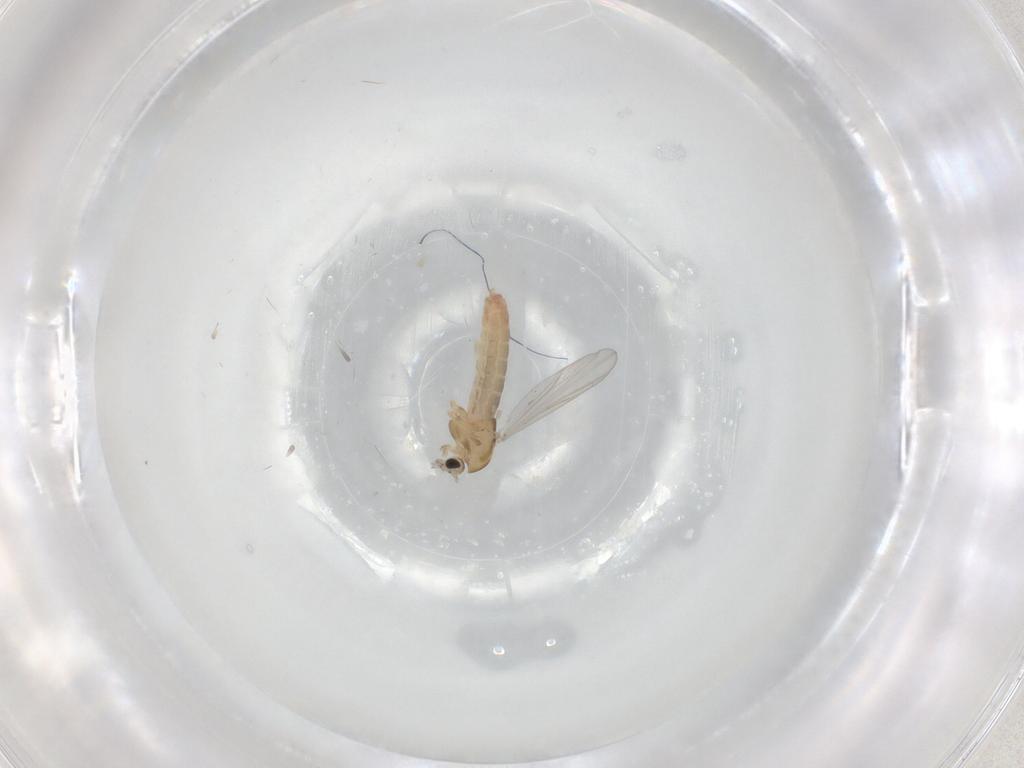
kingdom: Animalia
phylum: Arthropoda
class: Insecta
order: Diptera
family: Chironomidae
